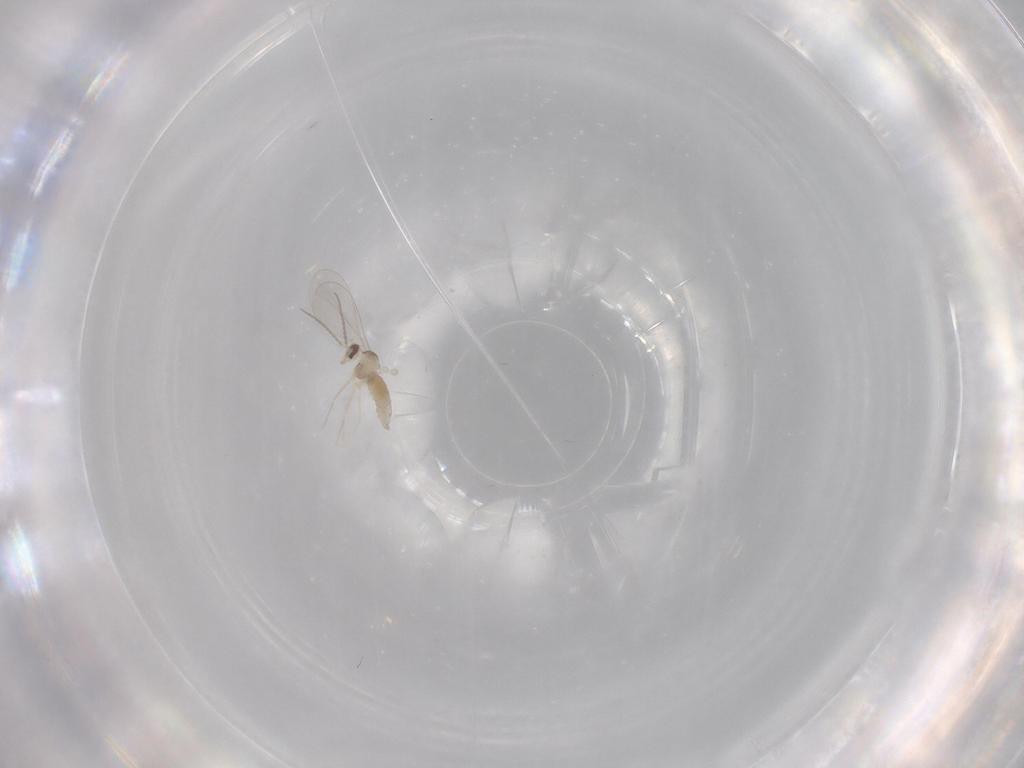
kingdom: Animalia
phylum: Arthropoda
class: Insecta
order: Diptera
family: Cecidomyiidae
